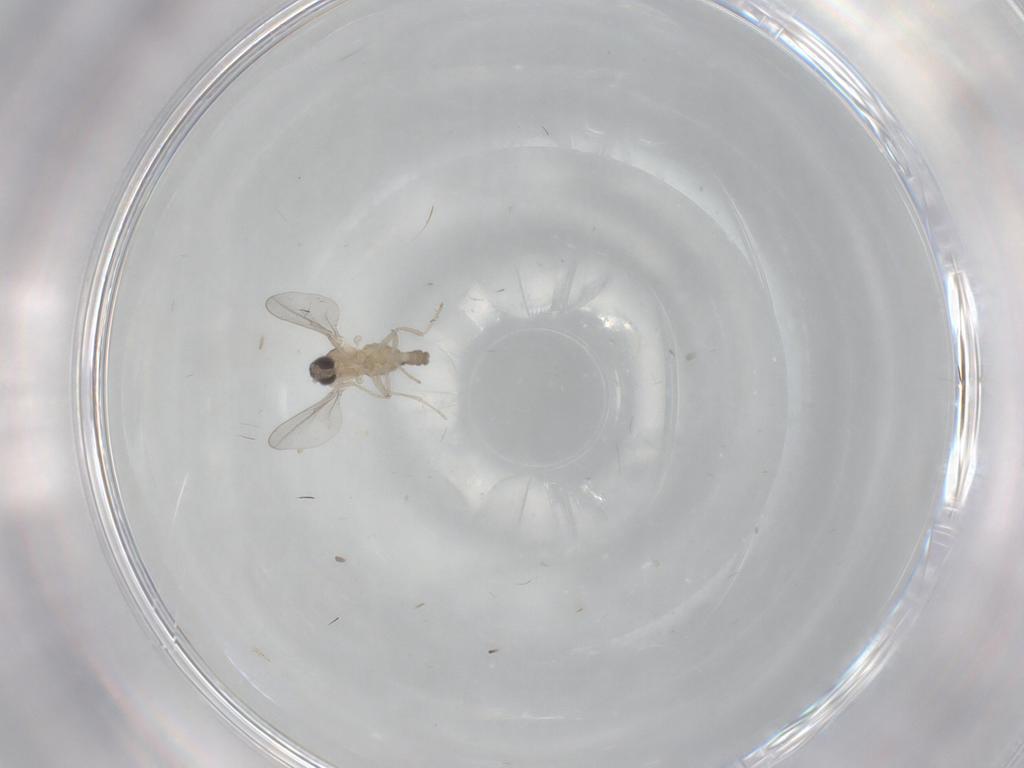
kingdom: Animalia
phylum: Arthropoda
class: Insecta
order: Diptera
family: Cecidomyiidae
